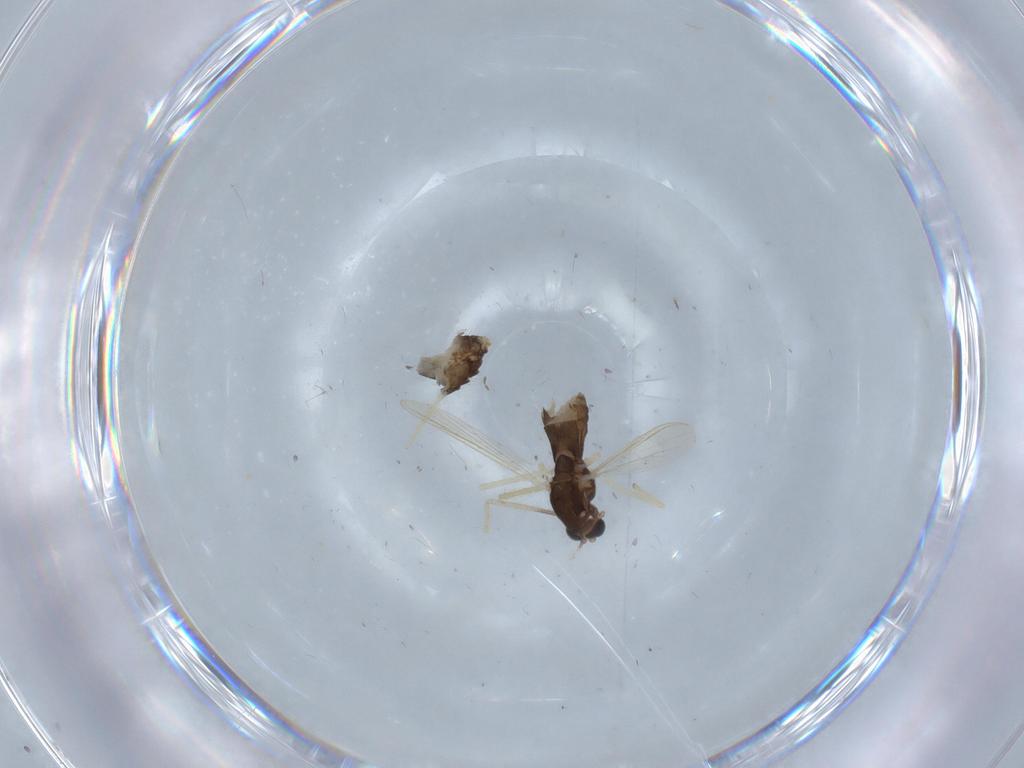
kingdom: Animalia
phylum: Arthropoda
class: Insecta
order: Diptera
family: Chironomidae
